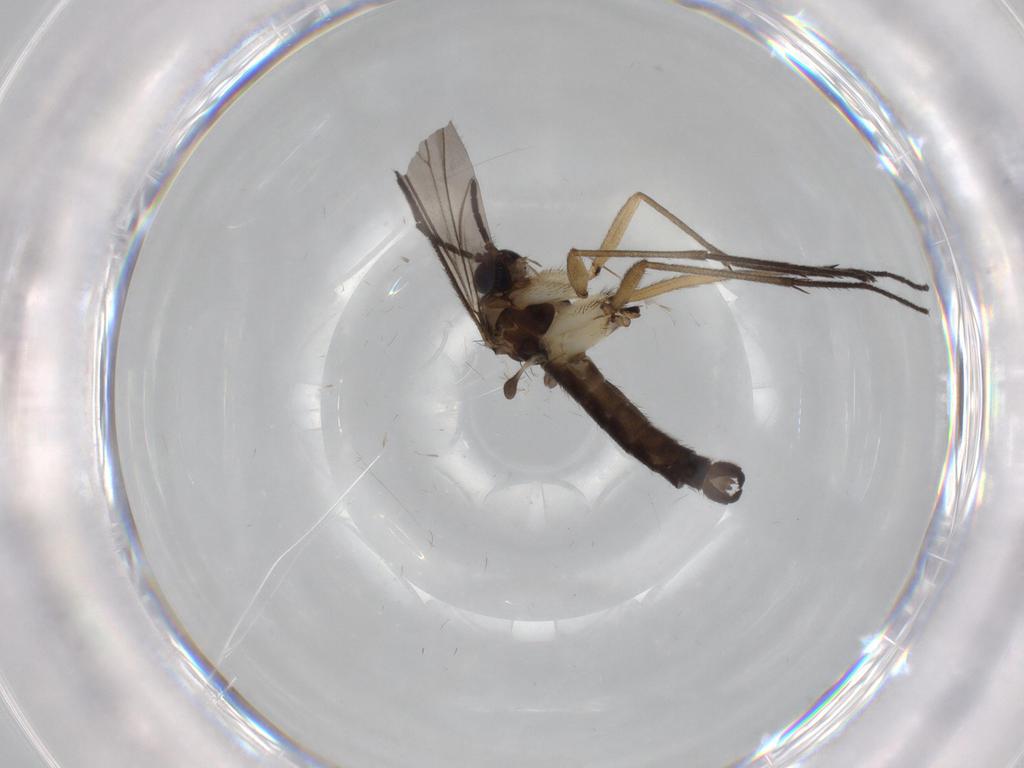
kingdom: Animalia
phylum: Arthropoda
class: Insecta
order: Diptera
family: Sciaridae
